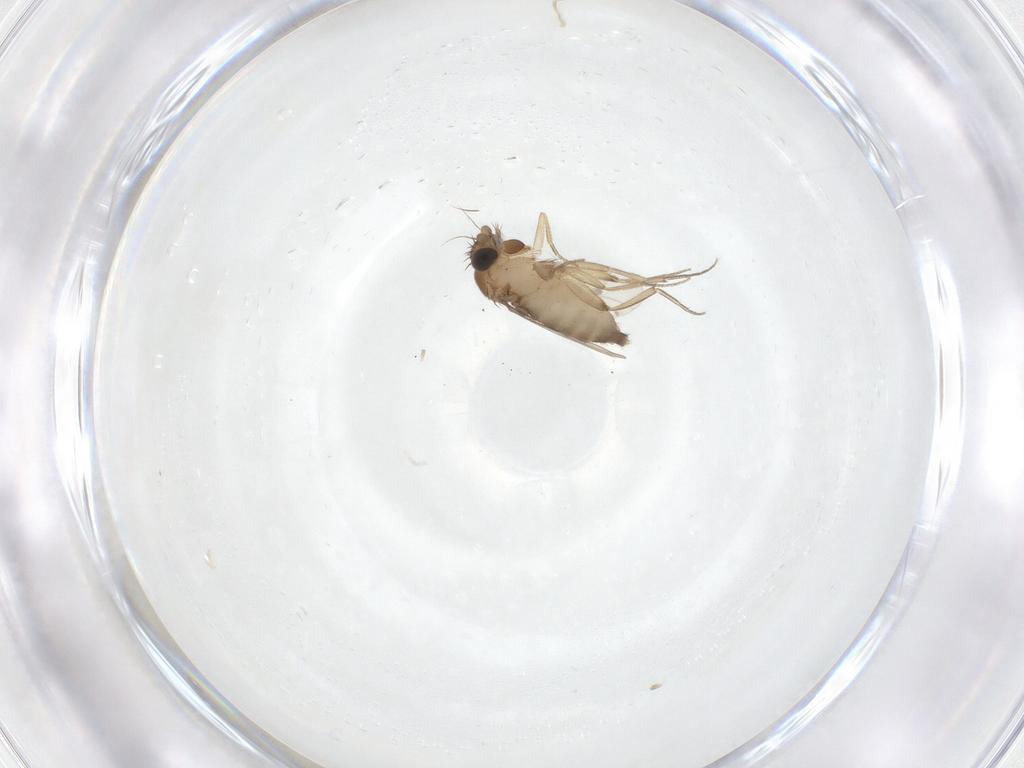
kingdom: Animalia
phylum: Arthropoda
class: Insecta
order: Diptera
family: Phoridae
